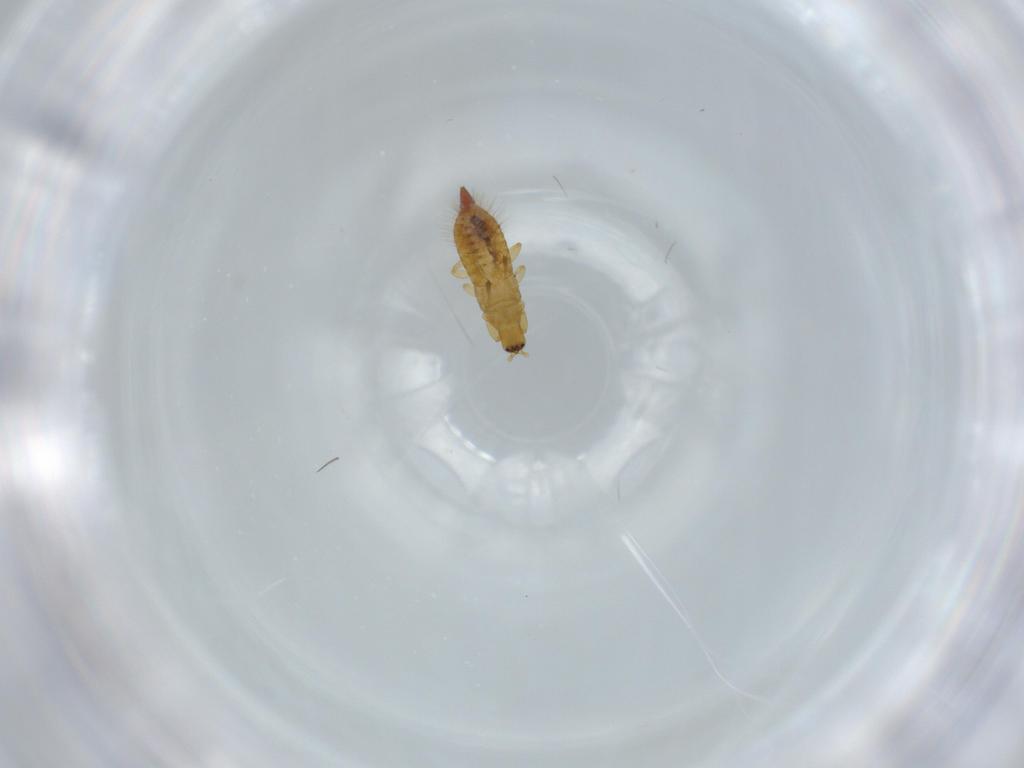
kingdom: Animalia
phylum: Arthropoda
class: Insecta
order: Thysanoptera
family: Phlaeothripidae
